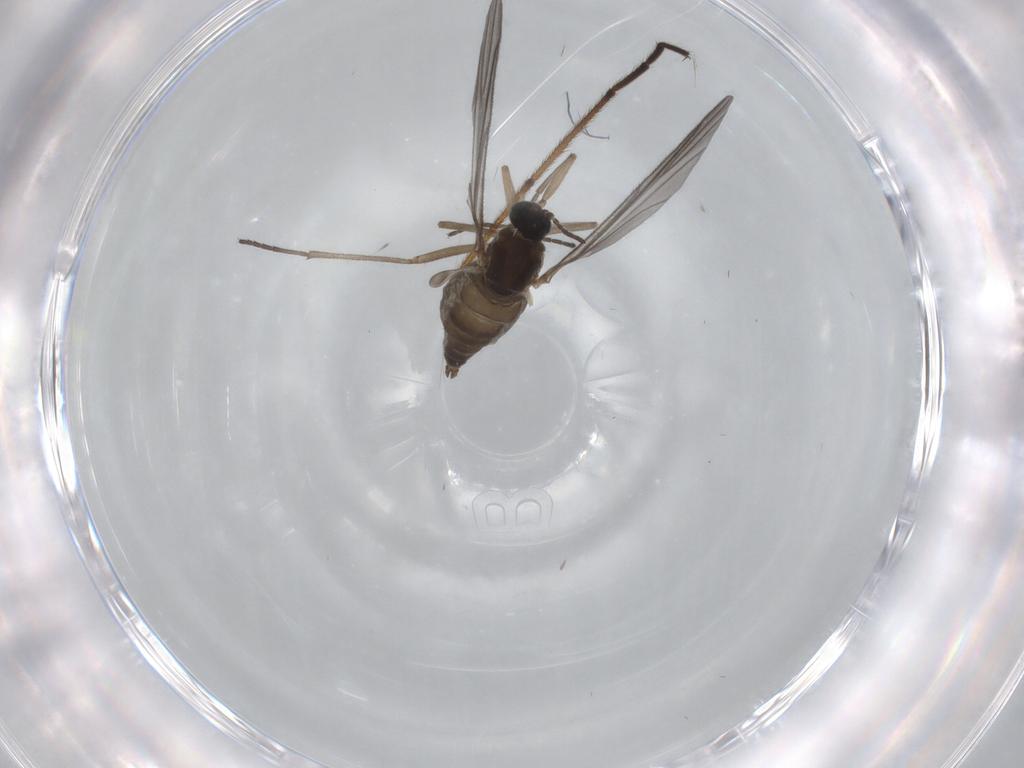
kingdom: Animalia
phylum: Arthropoda
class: Insecta
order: Diptera
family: Sciaridae
